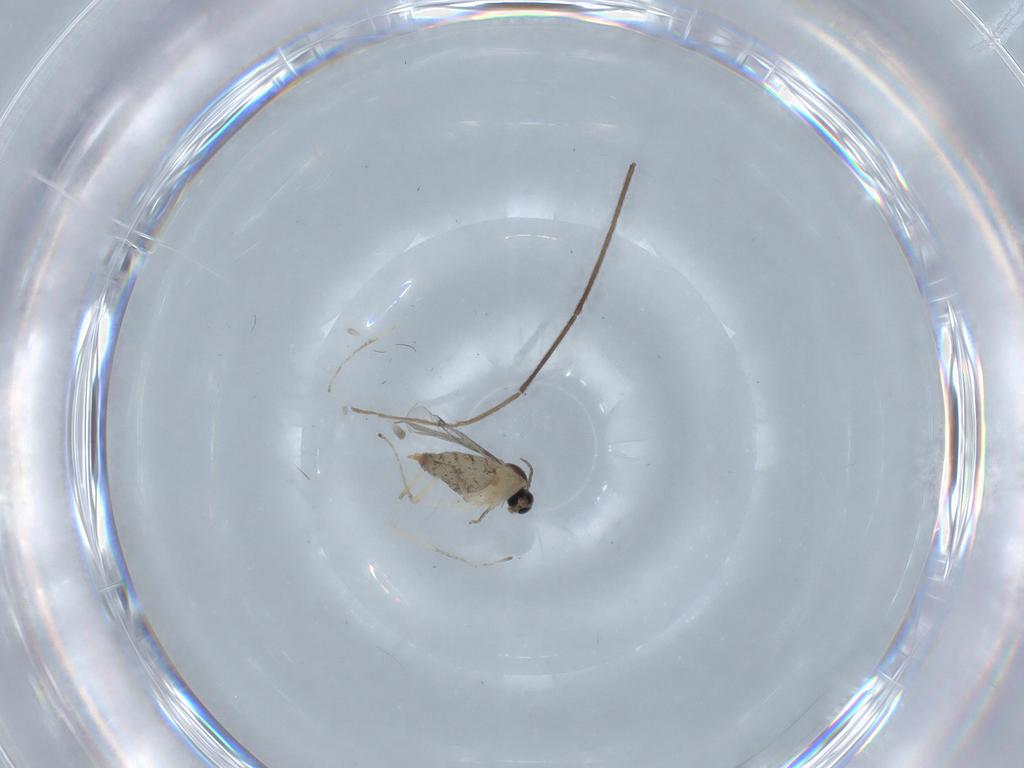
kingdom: Animalia
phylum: Arthropoda
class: Insecta
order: Diptera
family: Cecidomyiidae
